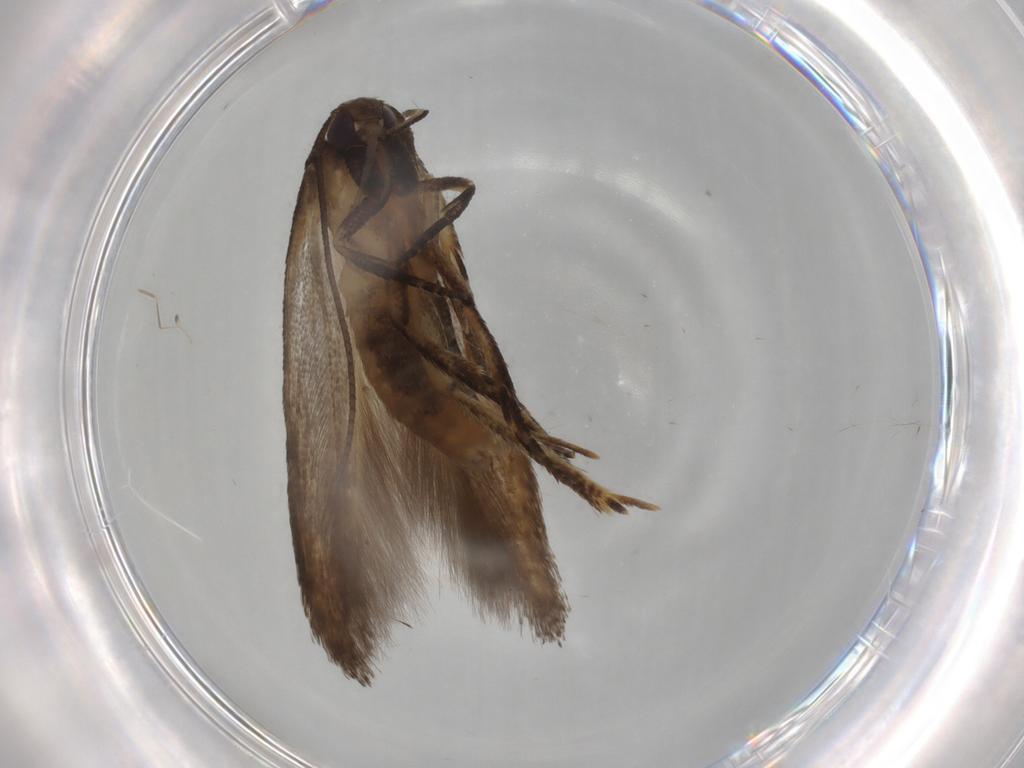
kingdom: Animalia
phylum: Arthropoda
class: Insecta
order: Lepidoptera
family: Cosmopterigidae
